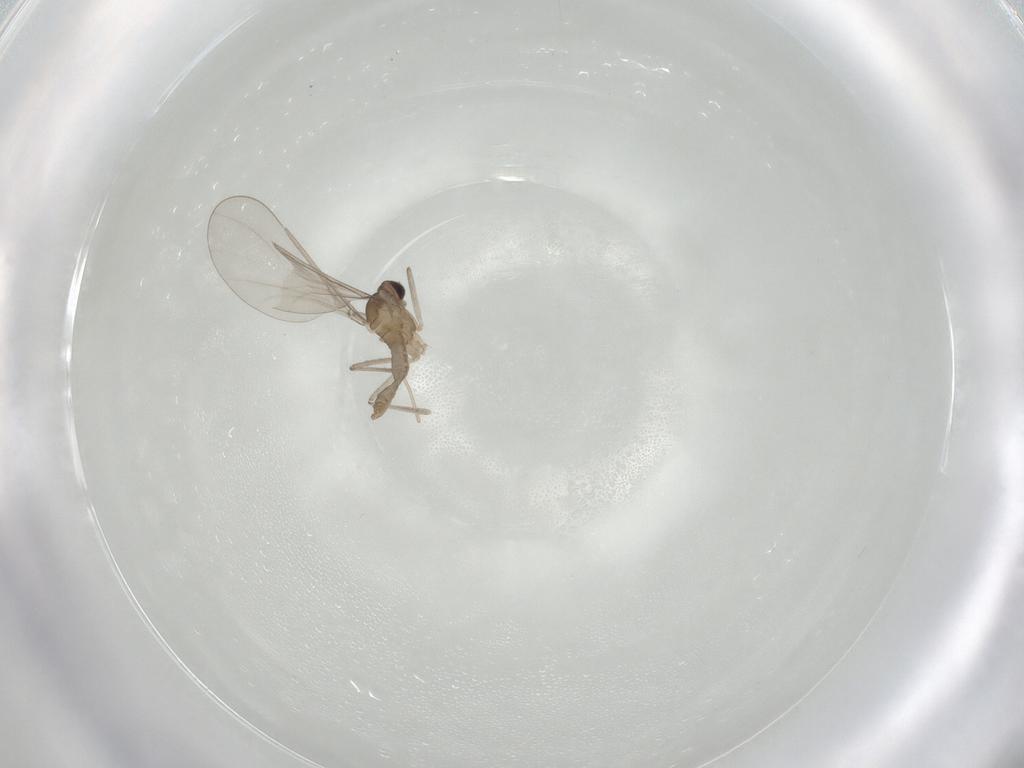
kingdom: Animalia
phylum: Arthropoda
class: Insecta
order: Diptera
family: Cecidomyiidae
